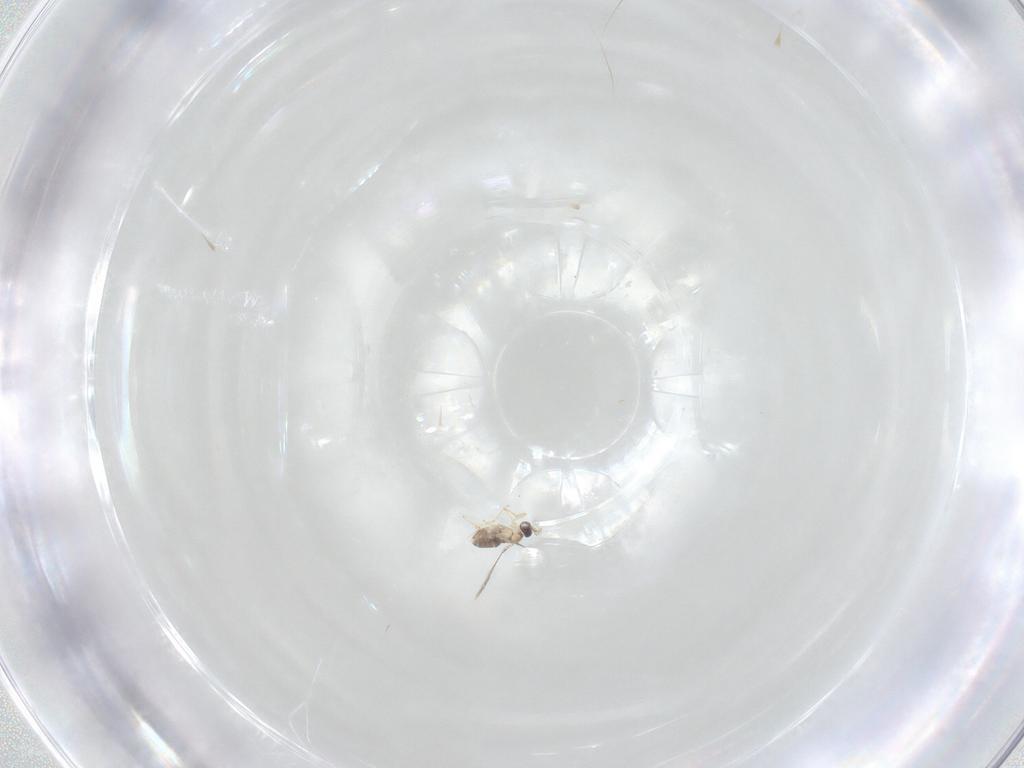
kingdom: Animalia
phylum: Arthropoda
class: Insecta
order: Hymenoptera
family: Mymaridae
